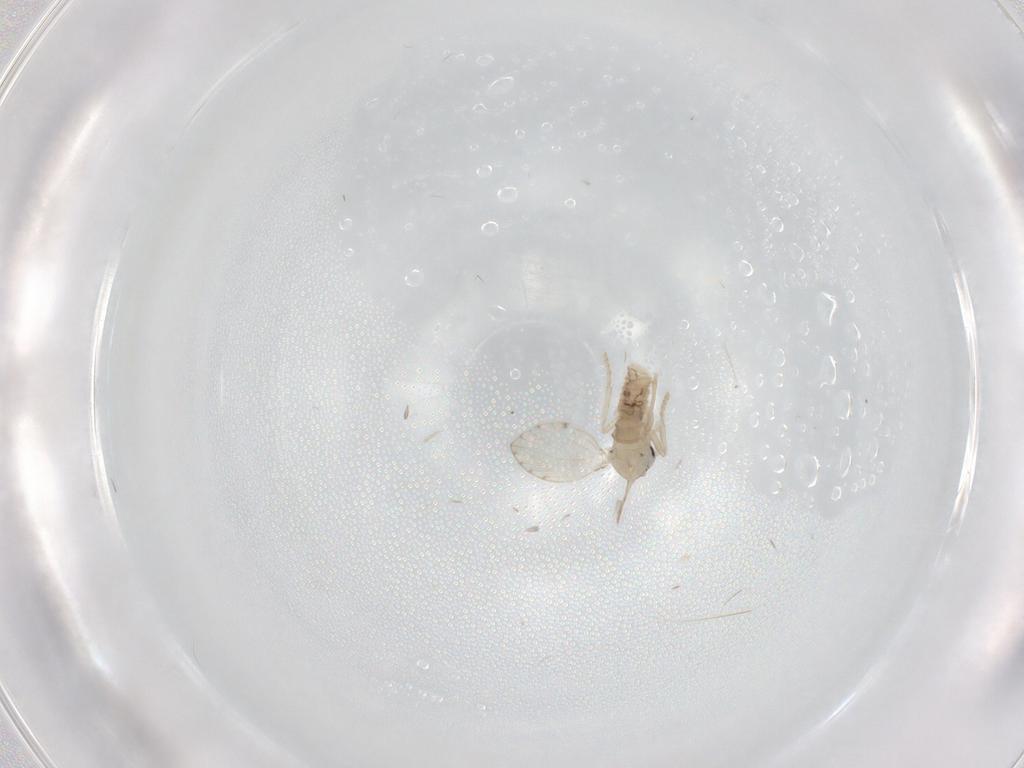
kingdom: Animalia
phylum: Arthropoda
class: Insecta
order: Diptera
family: Psychodidae
